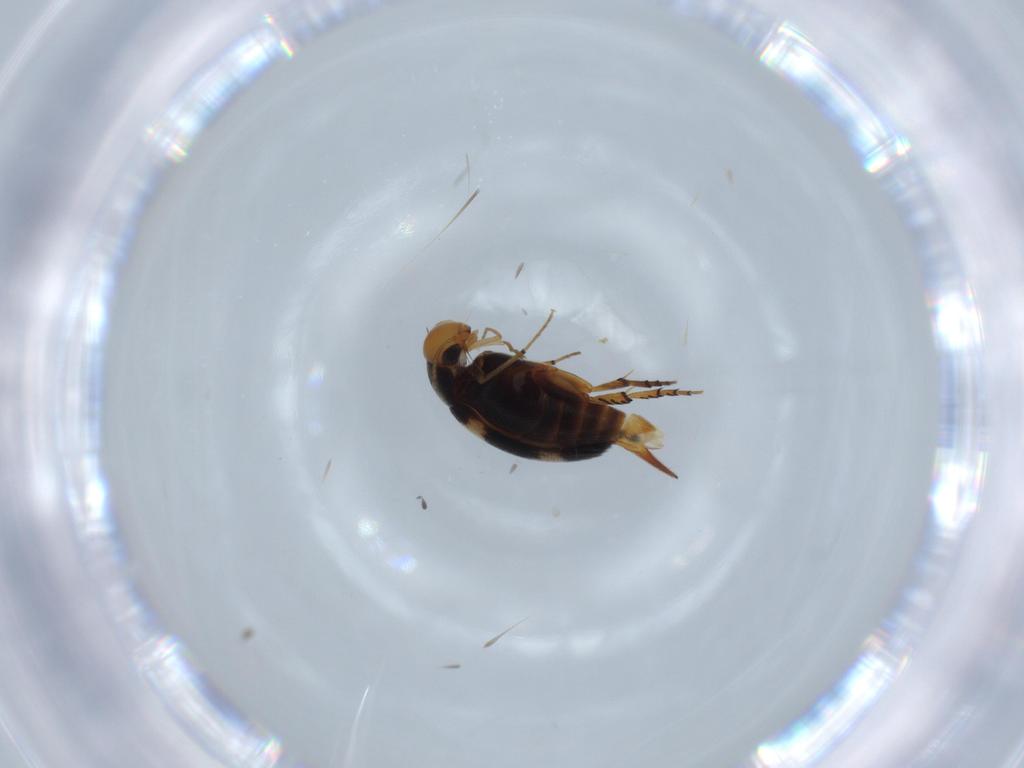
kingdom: Animalia
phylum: Arthropoda
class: Insecta
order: Coleoptera
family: Mordellidae
